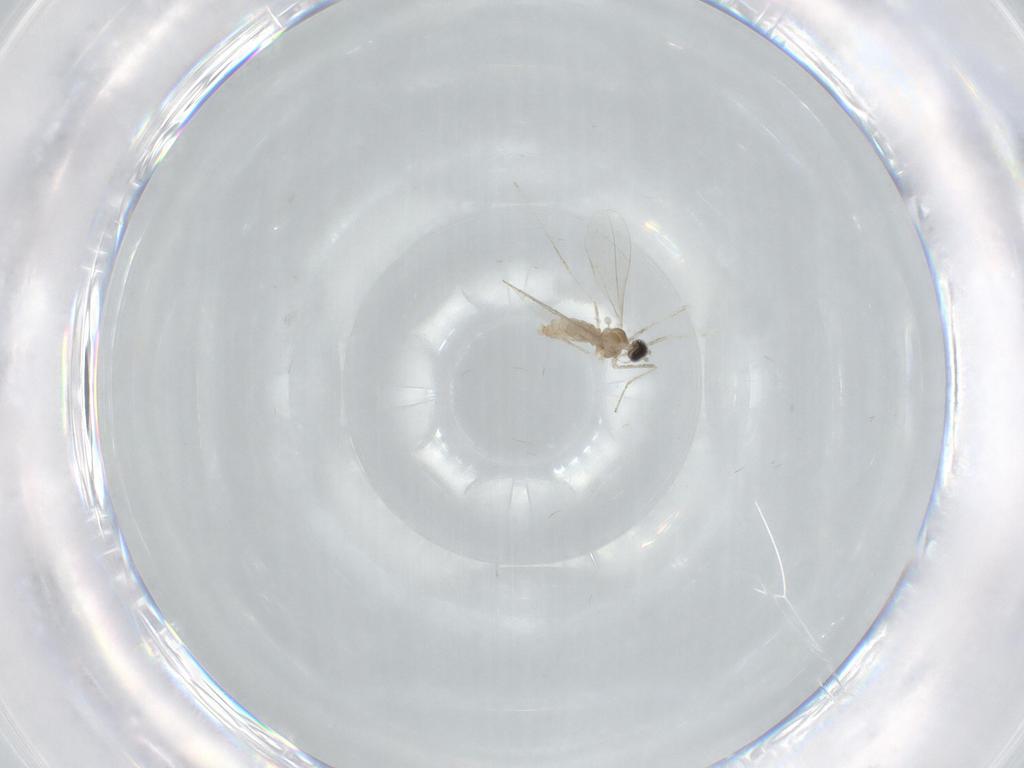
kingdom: Animalia
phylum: Arthropoda
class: Insecta
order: Diptera
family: Cecidomyiidae
